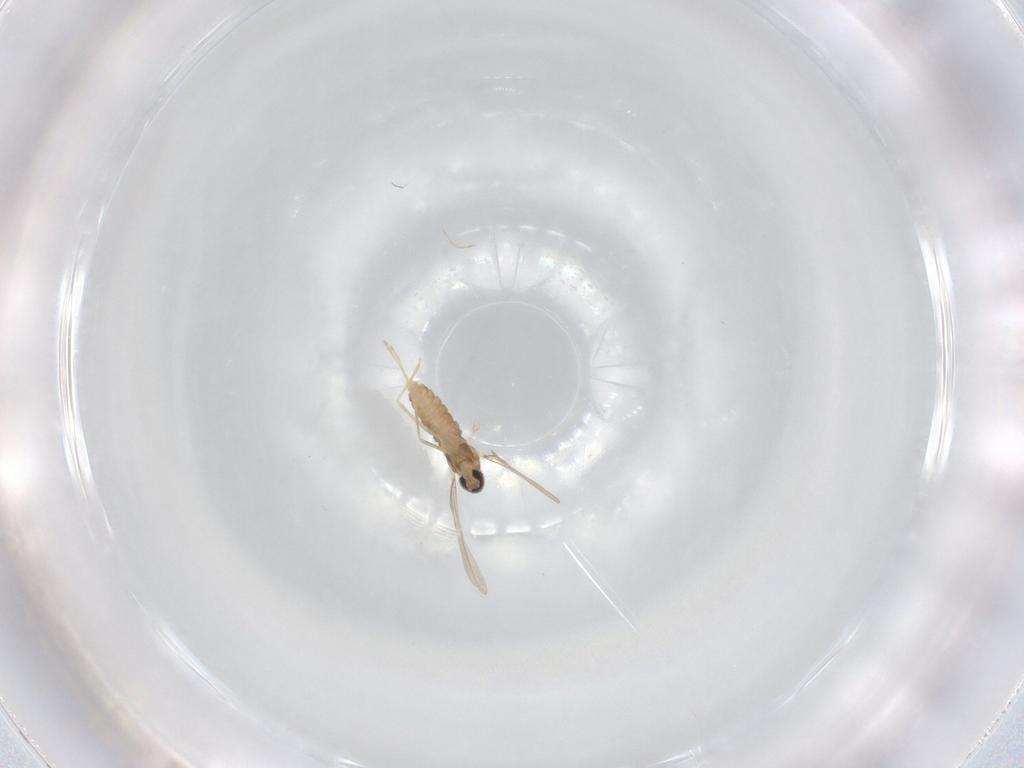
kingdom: Animalia
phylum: Arthropoda
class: Insecta
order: Diptera
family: Cecidomyiidae
